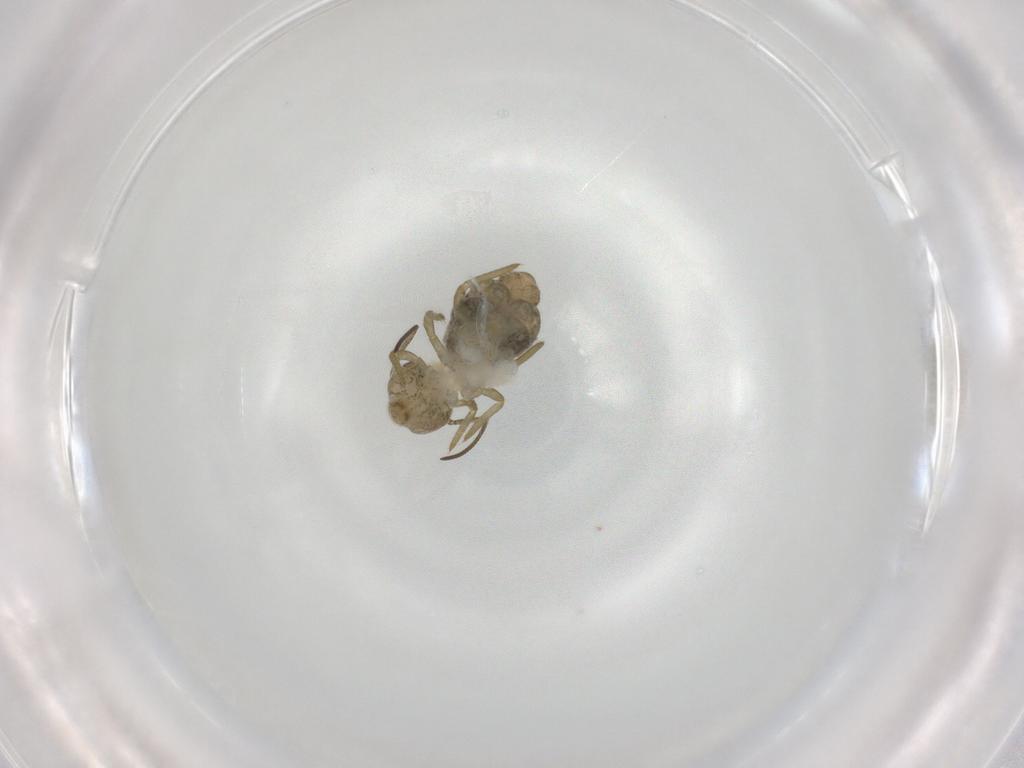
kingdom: Animalia
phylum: Arthropoda
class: Collembola
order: Symphypleona
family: Sminthuridae
